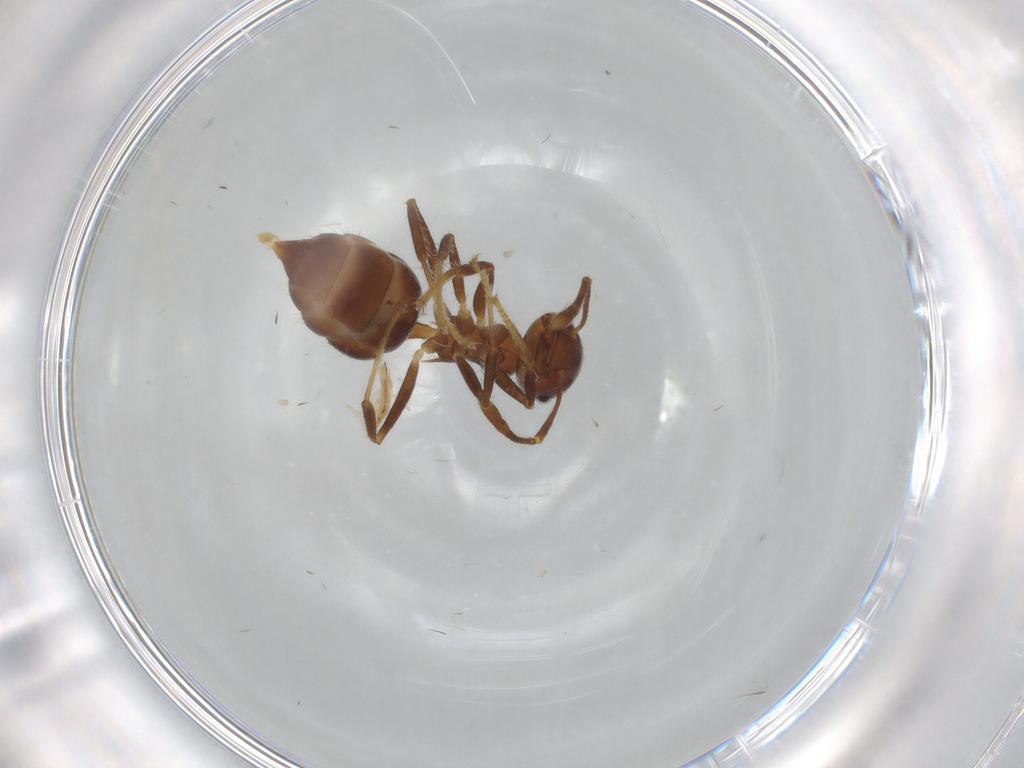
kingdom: Animalia
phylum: Arthropoda
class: Insecta
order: Hymenoptera
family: Formicidae
